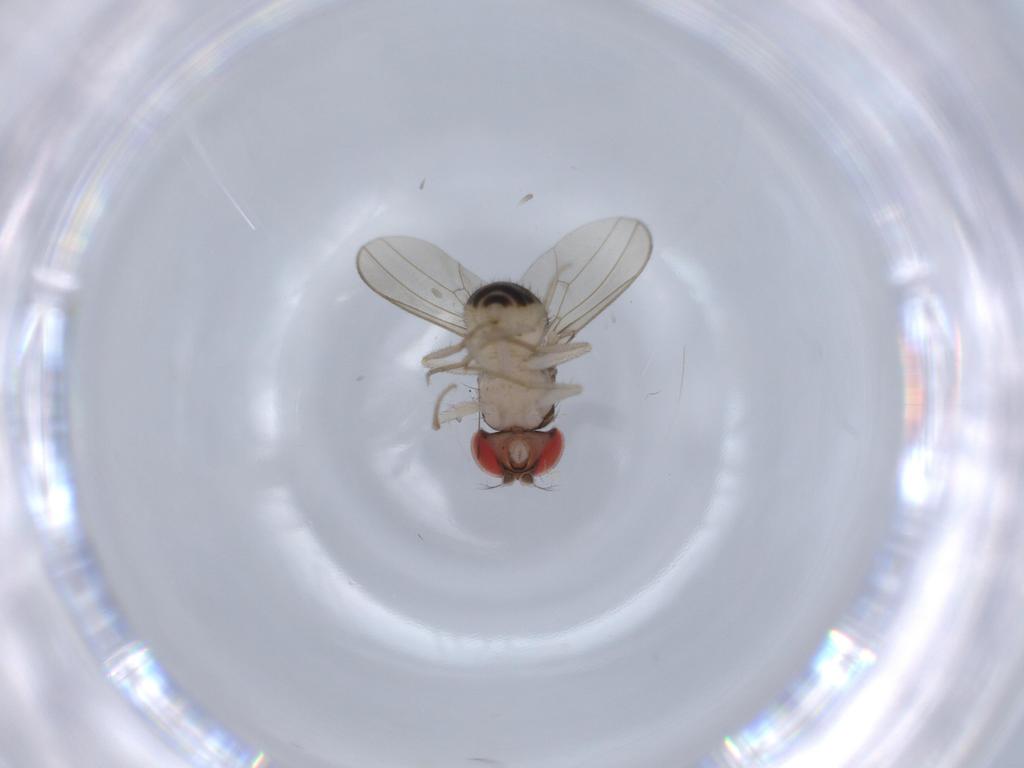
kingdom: Animalia
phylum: Arthropoda
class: Insecta
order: Diptera
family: Drosophilidae
